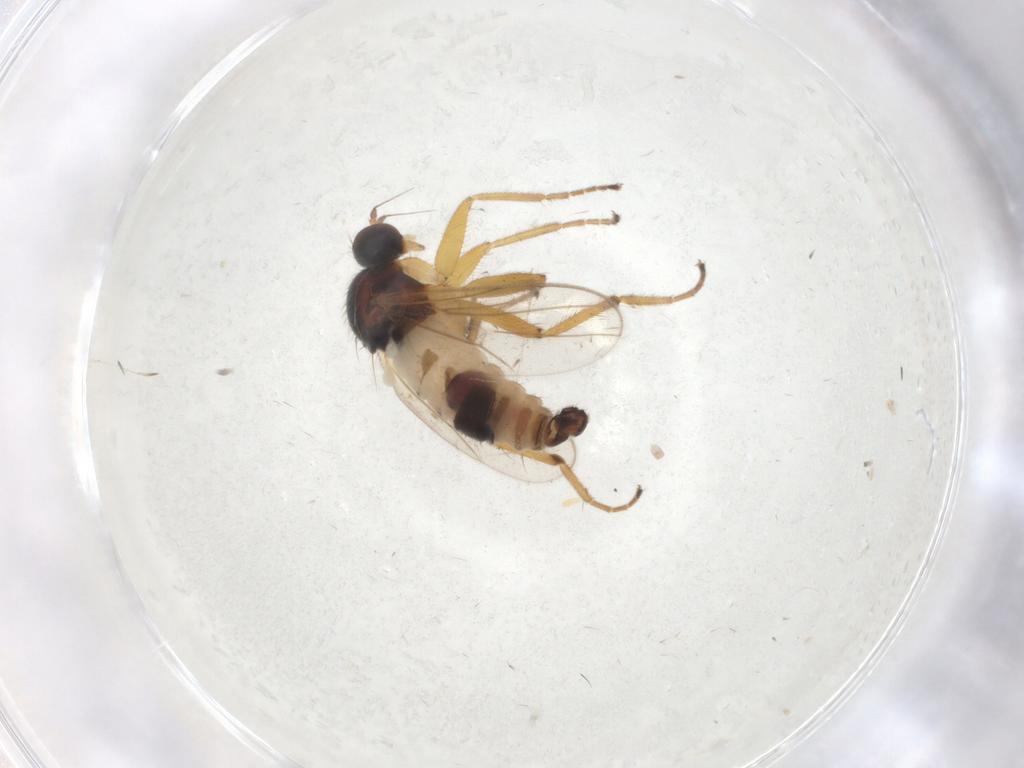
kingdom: Animalia
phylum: Arthropoda
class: Insecta
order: Diptera
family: Hybotidae
